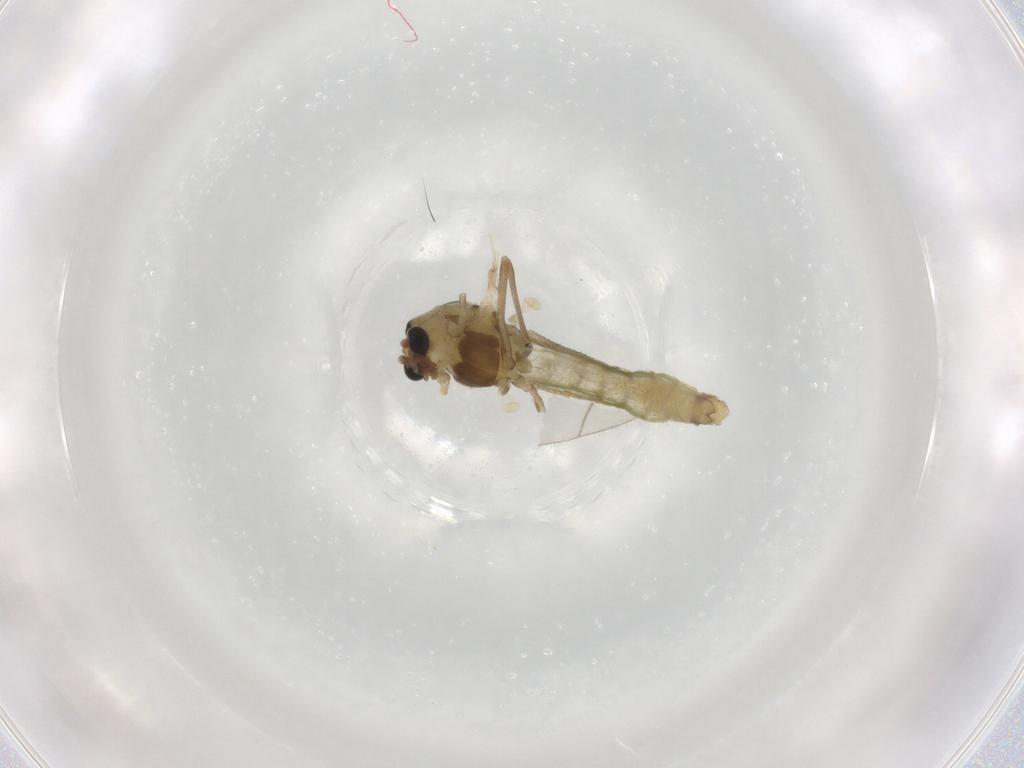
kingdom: Animalia
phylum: Arthropoda
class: Insecta
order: Diptera
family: Chironomidae
